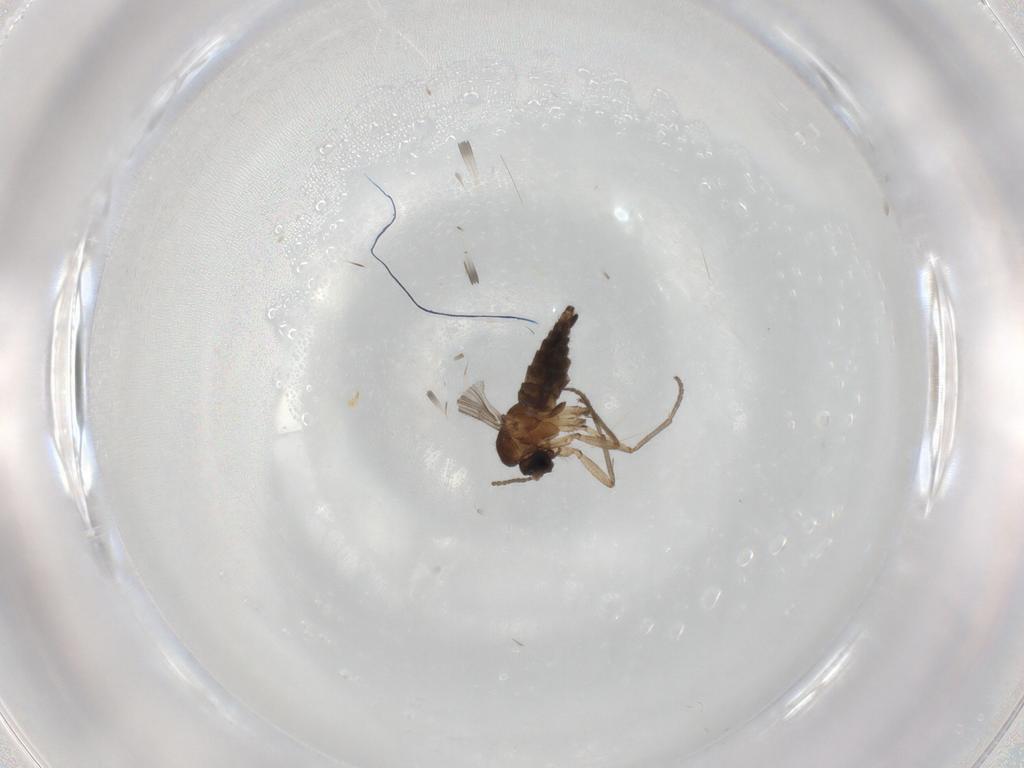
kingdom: Animalia
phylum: Arthropoda
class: Insecta
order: Diptera
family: Sciaridae
